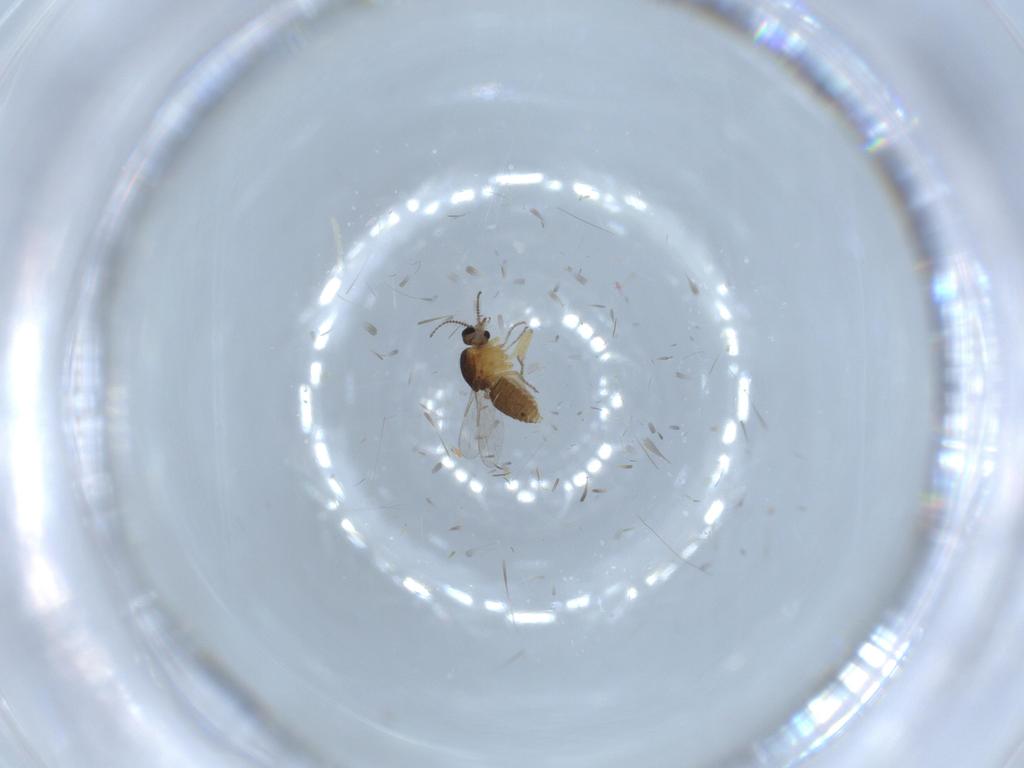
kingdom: Animalia
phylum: Arthropoda
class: Insecta
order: Diptera
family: Ceratopogonidae
